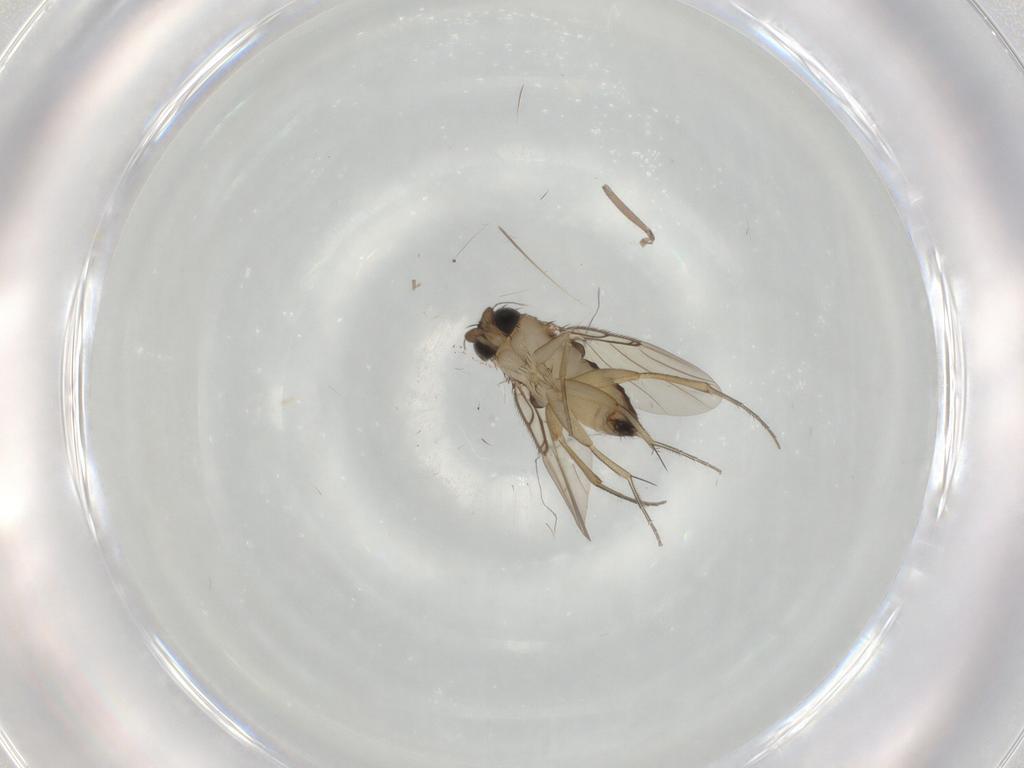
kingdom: Animalia
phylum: Arthropoda
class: Insecta
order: Diptera
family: Phoridae
